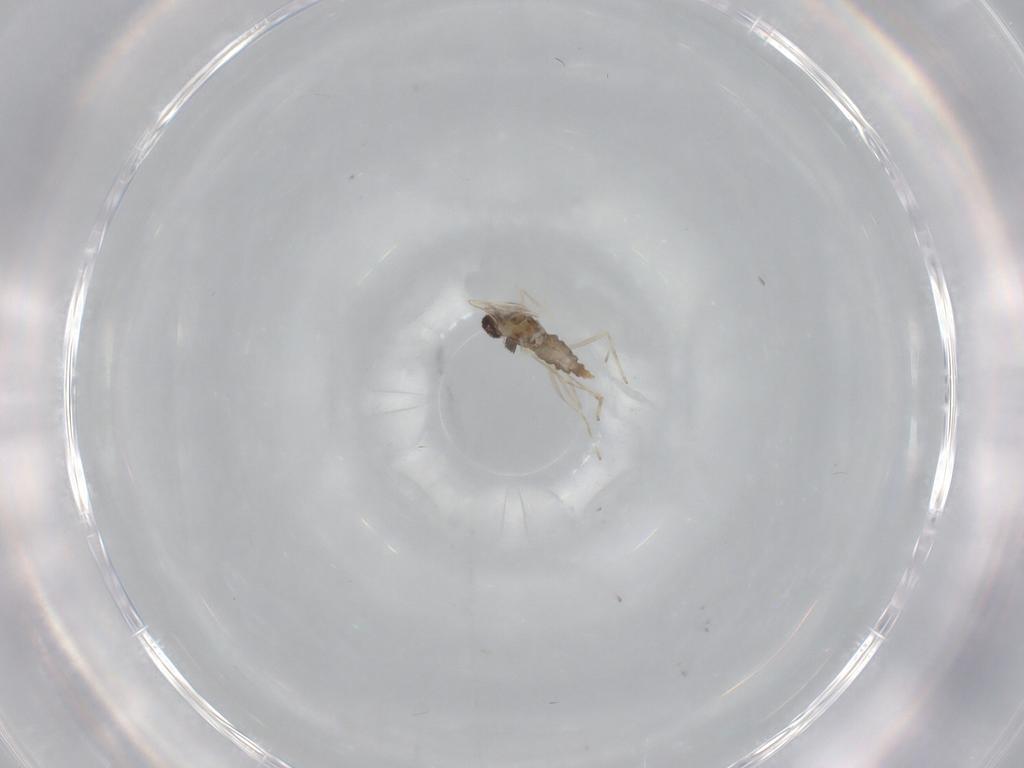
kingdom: Animalia
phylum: Arthropoda
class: Insecta
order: Diptera
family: Cecidomyiidae
